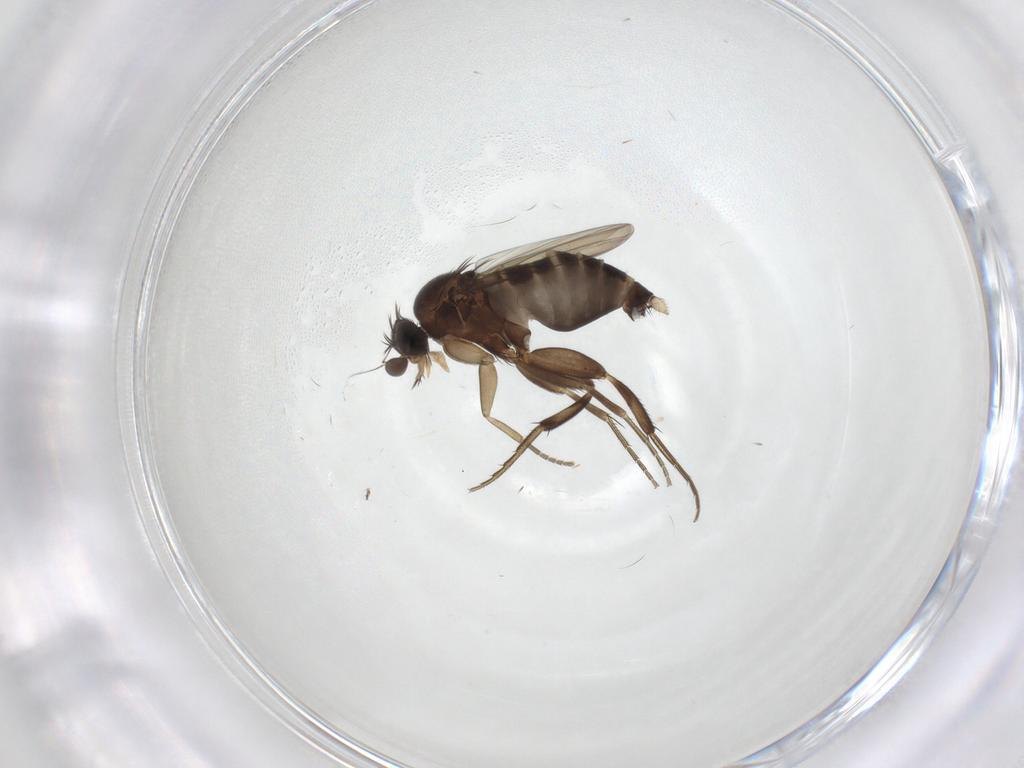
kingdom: Animalia
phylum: Arthropoda
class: Insecta
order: Diptera
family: Phoridae
